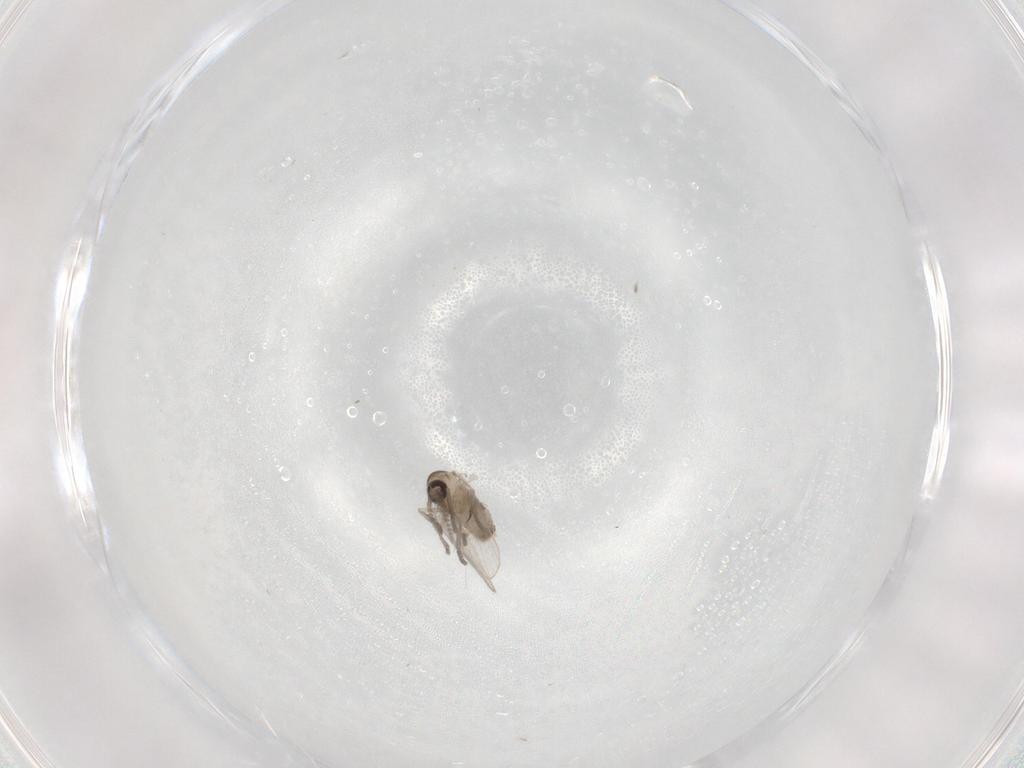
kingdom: Animalia
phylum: Arthropoda
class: Insecta
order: Diptera
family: Psychodidae
